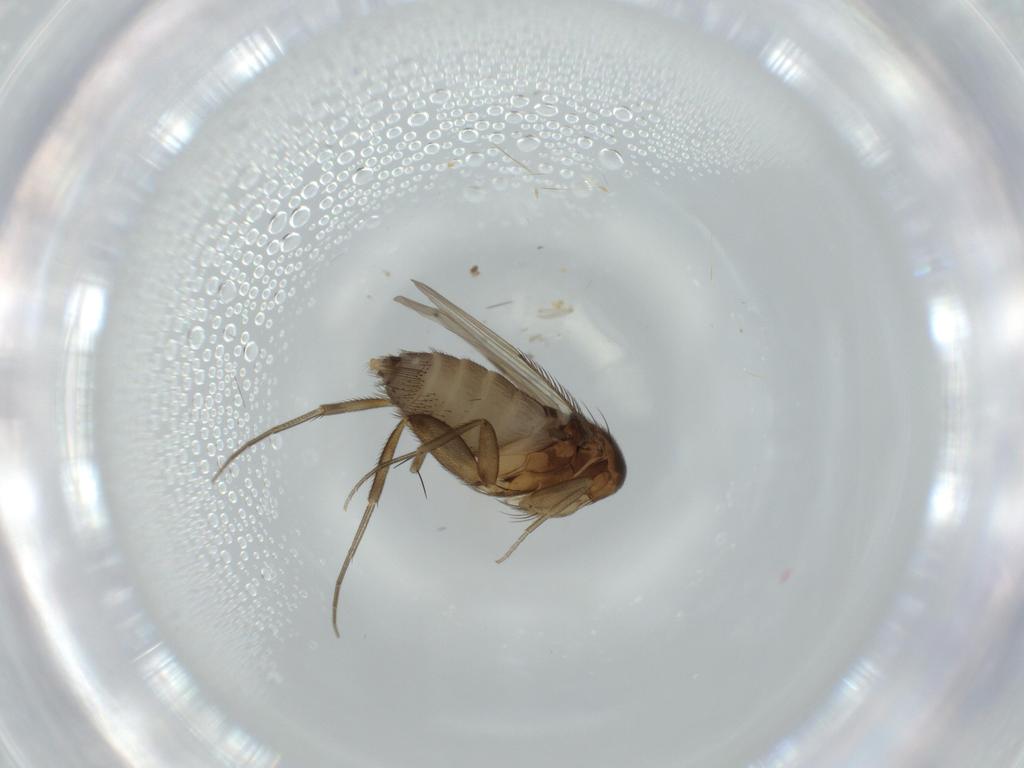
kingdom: Animalia
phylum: Arthropoda
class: Insecta
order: Diptera
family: Phoridae
